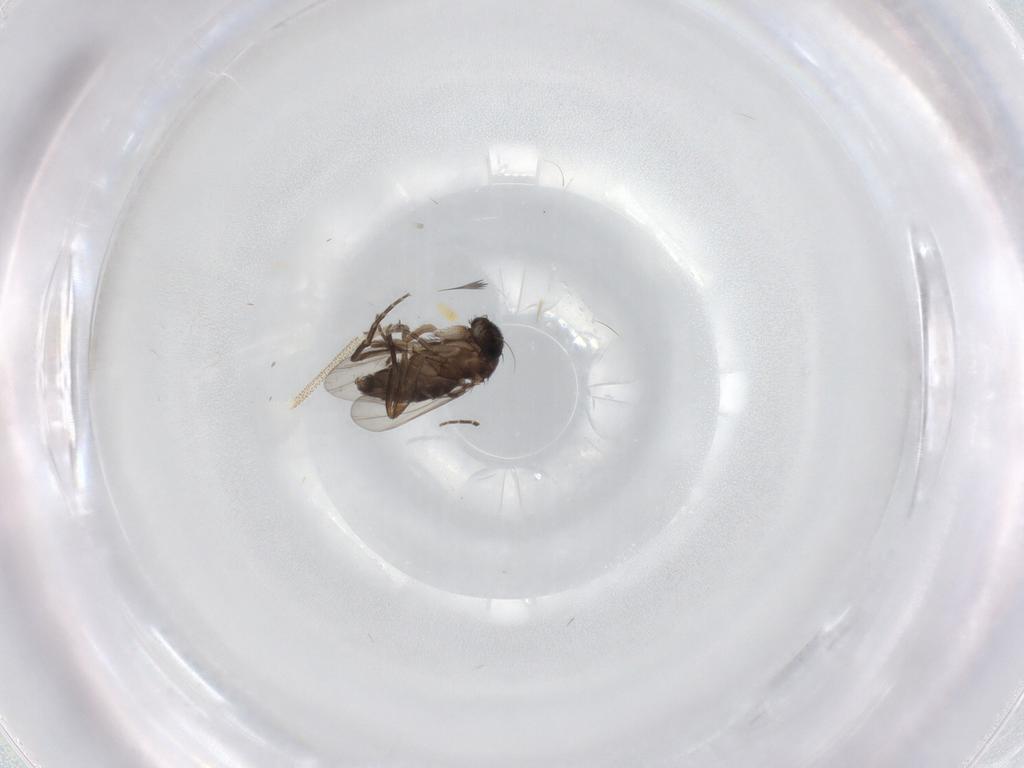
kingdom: Animalia
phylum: Arthropoda
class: Insecta
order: Diptera
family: Phoridae
